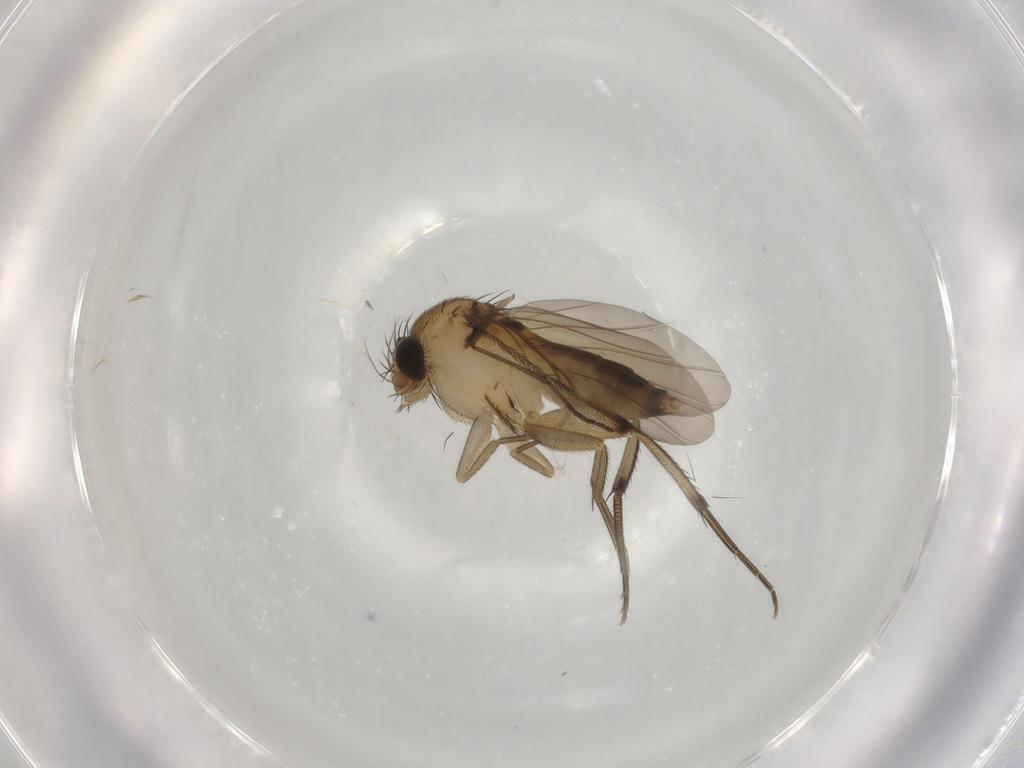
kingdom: Animalia
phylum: Arthropoda
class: Insecta
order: Diptera
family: Phoridae
